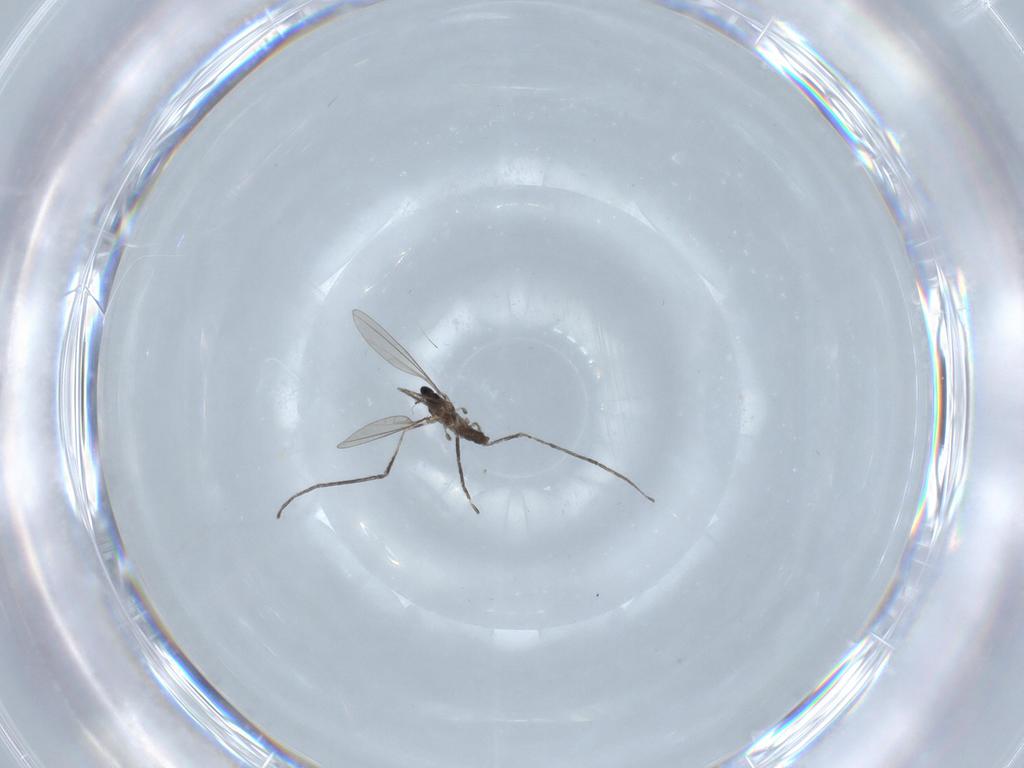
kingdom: Animalia
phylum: Arthropoda
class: Insecta
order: Diptera
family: Cecidomyiidae
